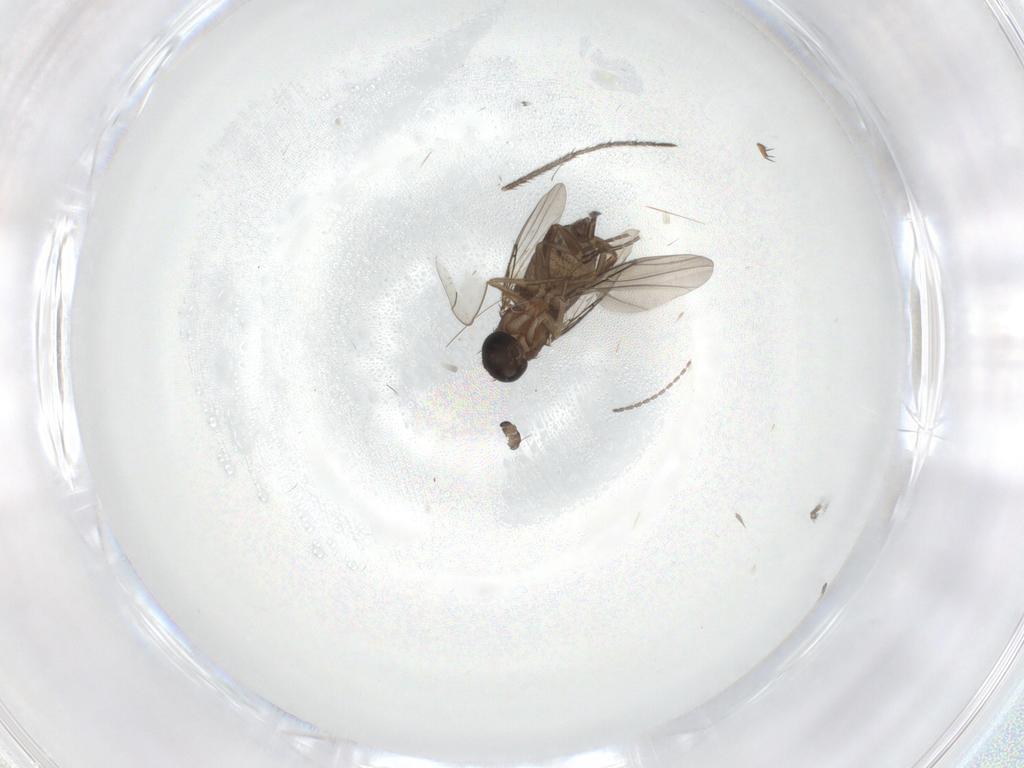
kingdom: Animalia
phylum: Arthropoda
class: Insecta
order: Diptera
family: Phoridae
